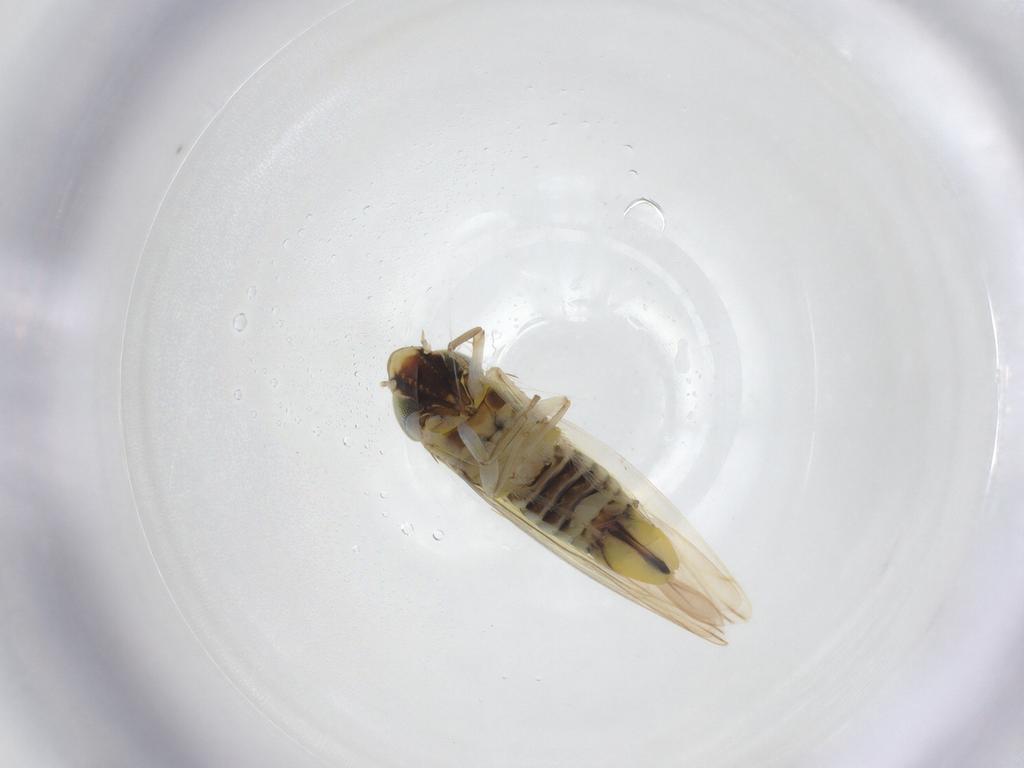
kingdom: Animalia
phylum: Arthropoda
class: Insecta
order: Hemiptera
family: Cicadellidae
